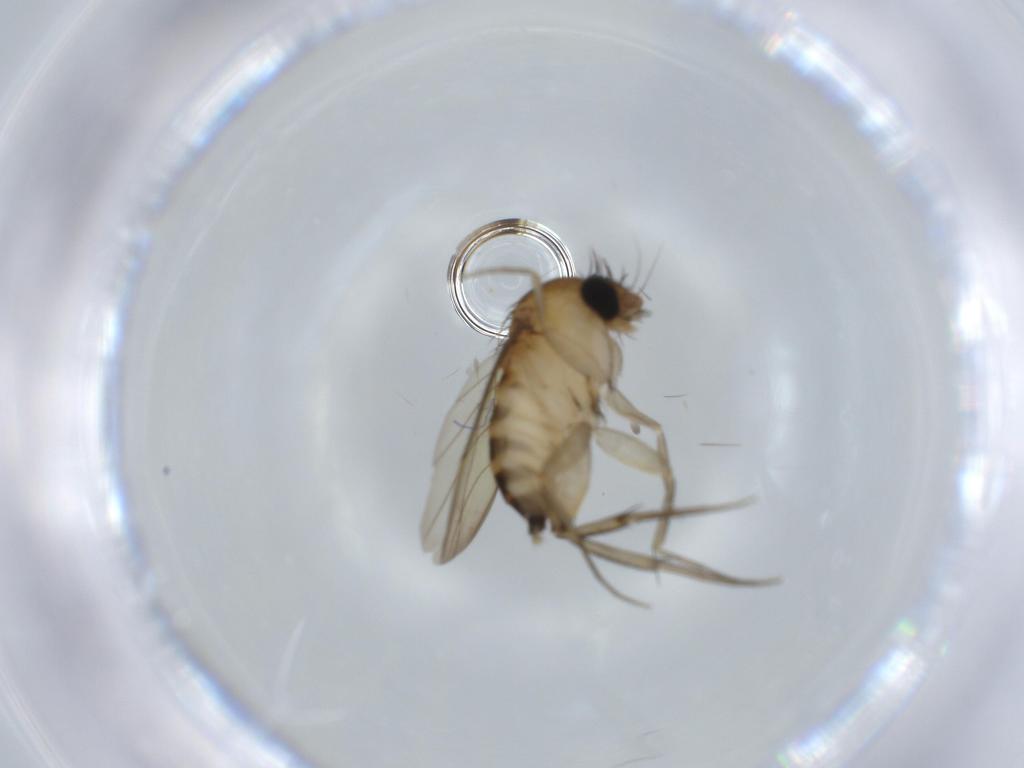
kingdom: Animalia
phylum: Arthropoda
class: Insecta
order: Diptera
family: Phoridae
